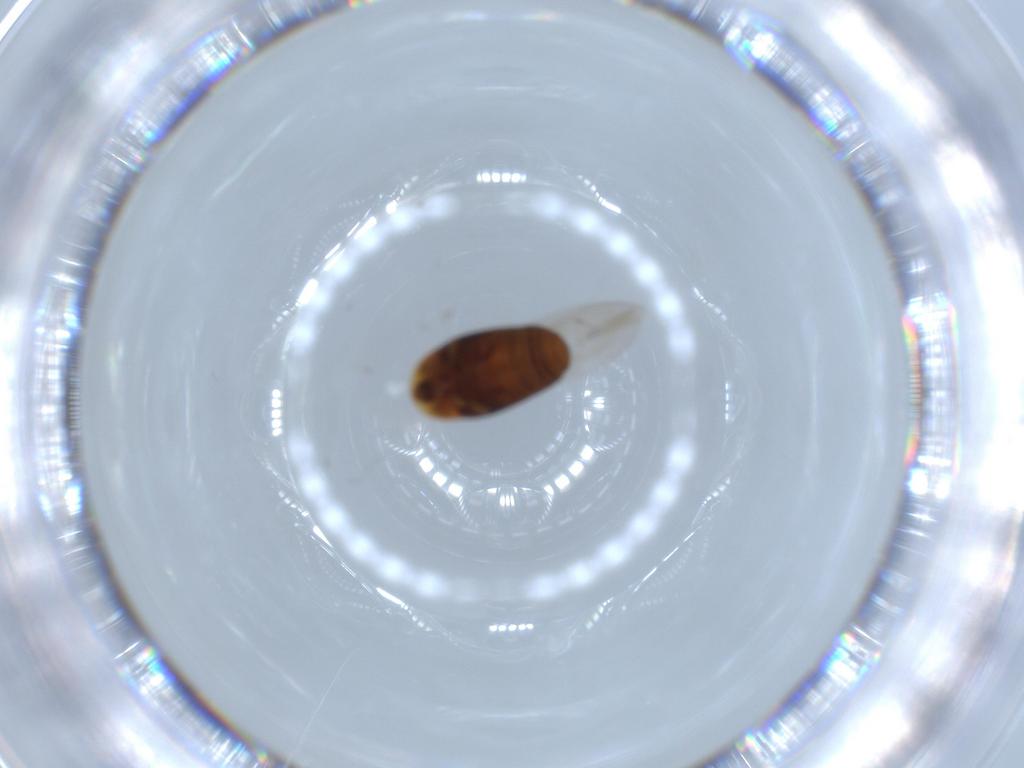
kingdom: Animalia
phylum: Arthropoda
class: Insecta
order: Coleoptera
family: Corylophidae
